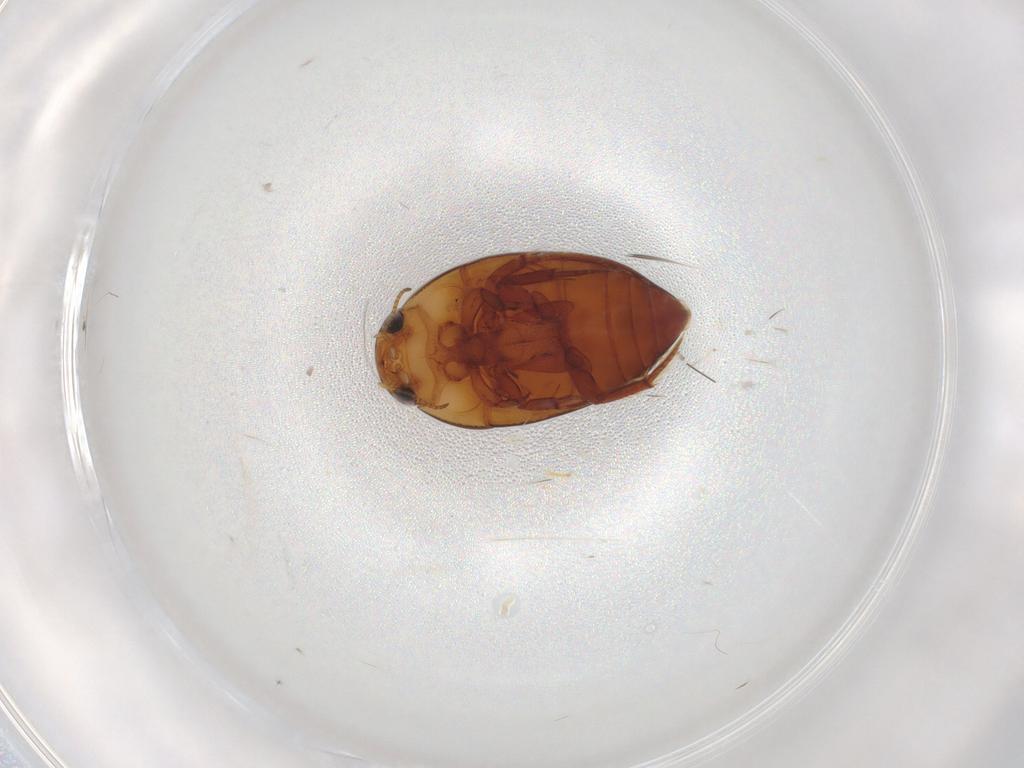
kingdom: Animalia
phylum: Arthropoda
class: Insecta
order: Coleoptera
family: Noteridae
